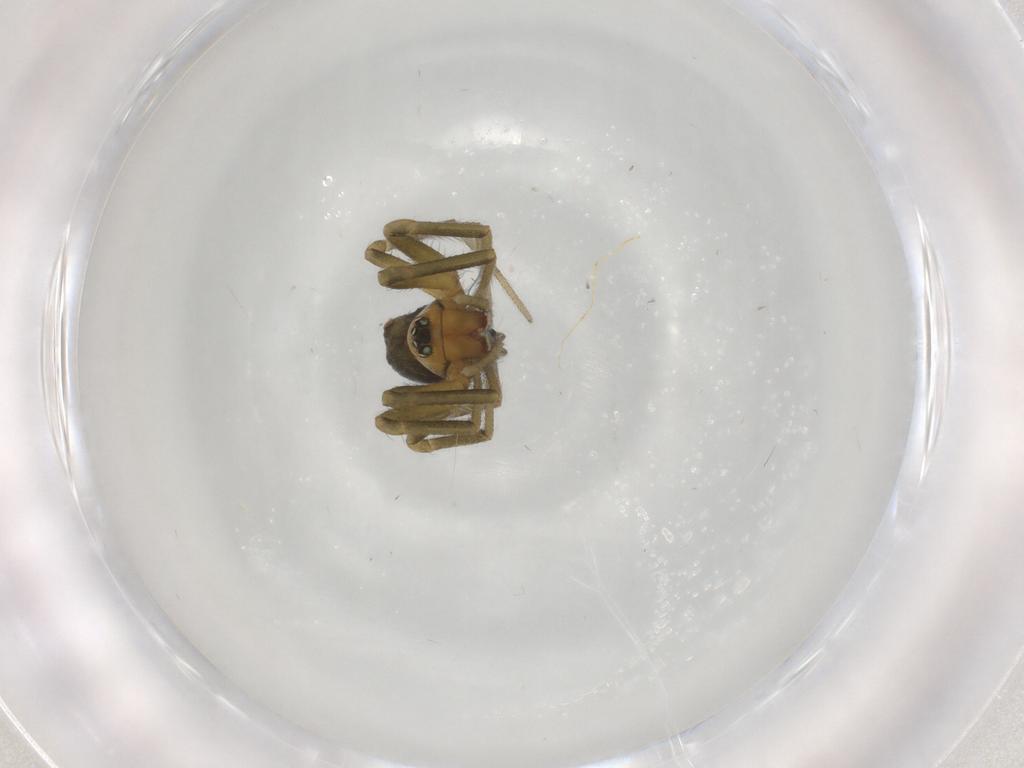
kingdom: Animalia
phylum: Arthropoda
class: Arachnida
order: Araneae
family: Linyphiidae
